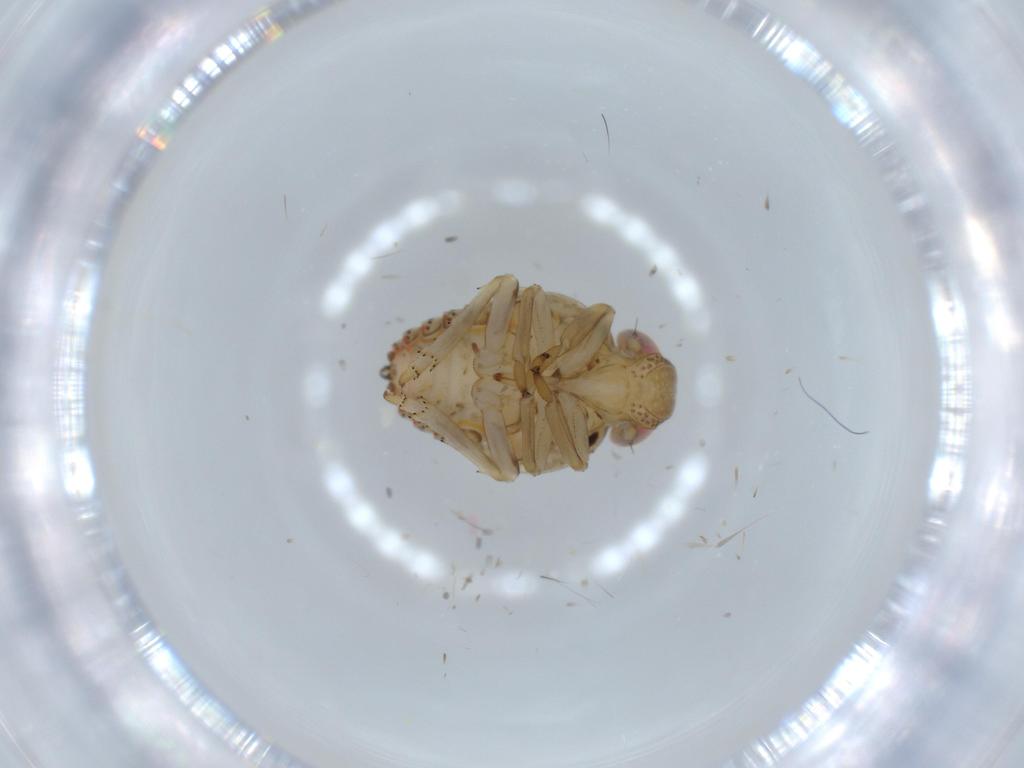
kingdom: Animalia
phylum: Arthropoda
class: Insecta
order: Hemiptera
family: Issidae
